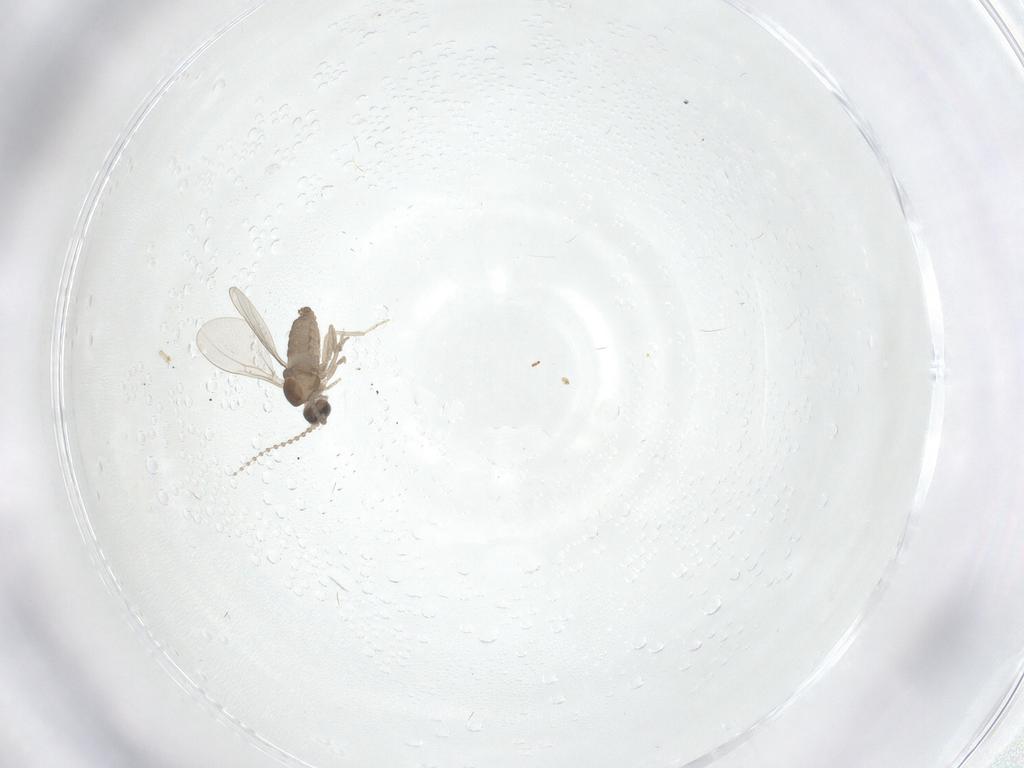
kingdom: Animalia
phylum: Arthropoda
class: Insecta
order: Diptera
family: Cecidomyiidae
